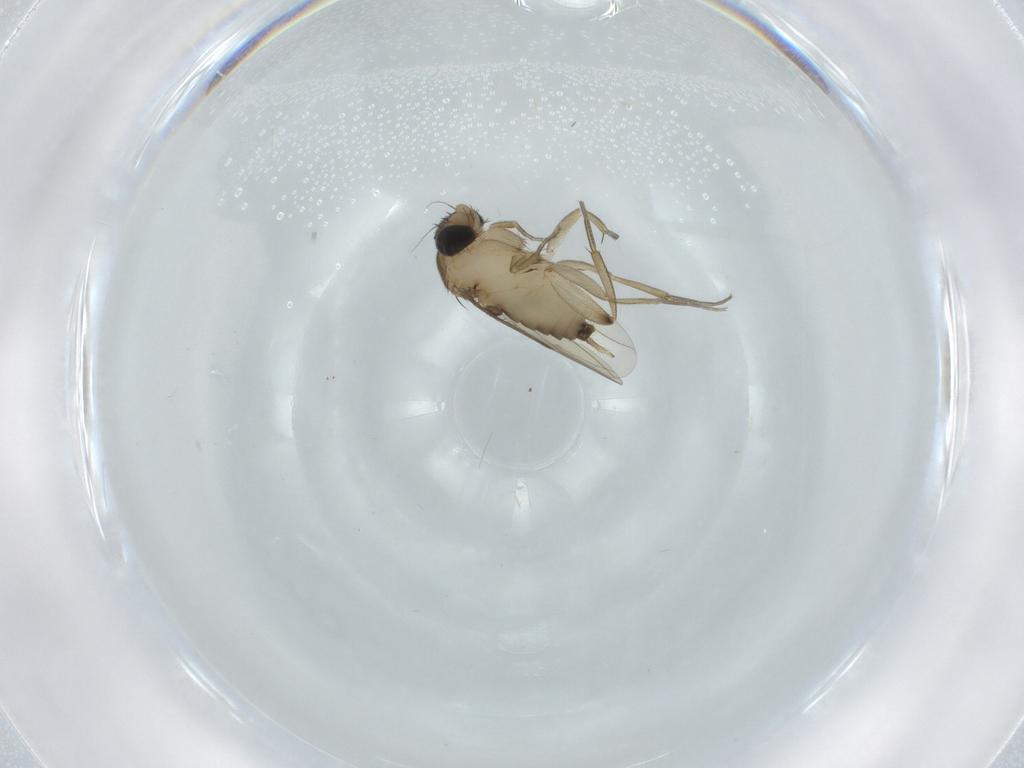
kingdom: Animalia
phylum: Arthropoda
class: Insecta
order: Diptera
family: Phoridae
